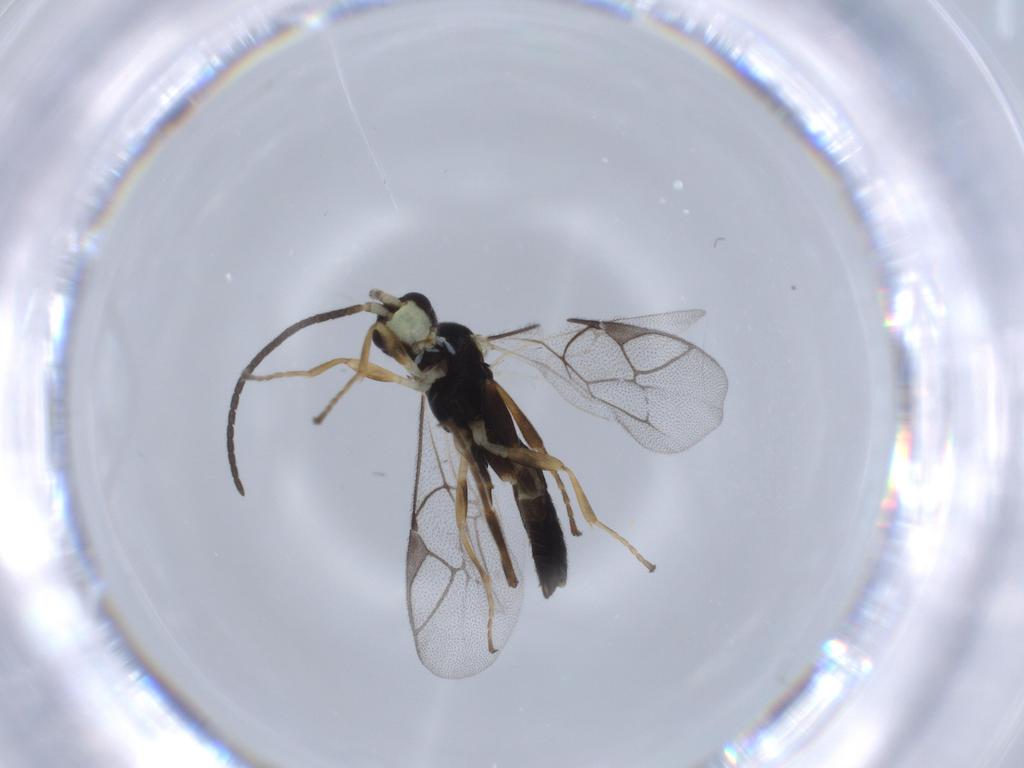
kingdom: Animalia
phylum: Arthropoda
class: Insecta
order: Hymenoptera
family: Ichneumonidae
